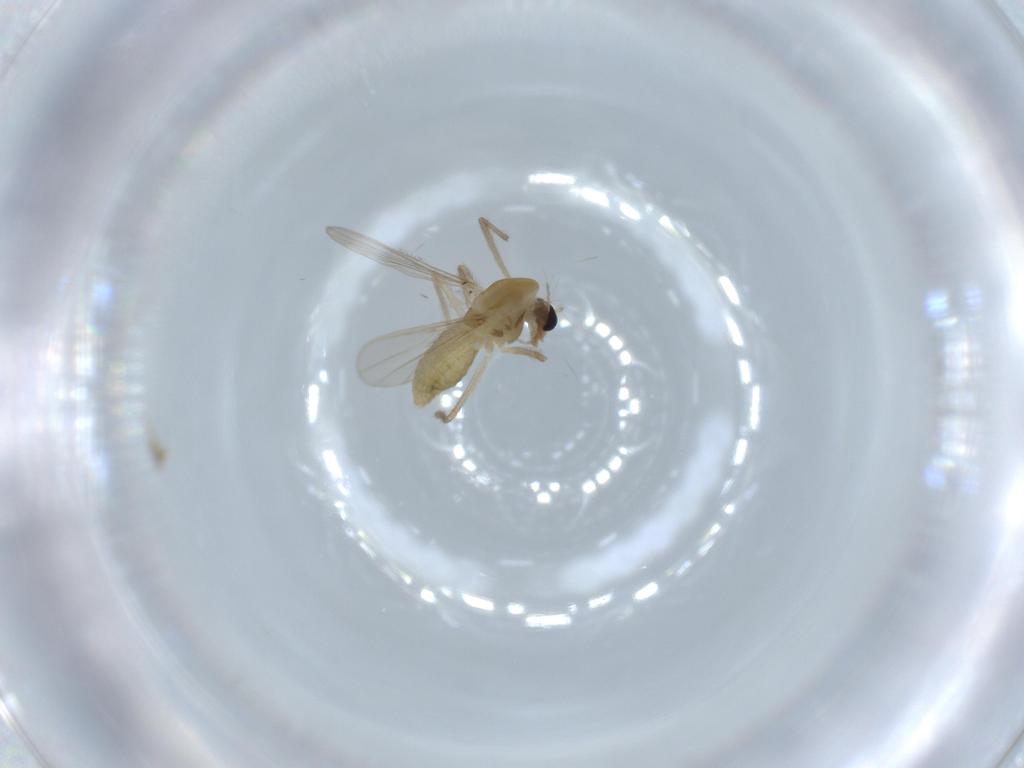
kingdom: Animalia
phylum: Arthropoda
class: Insecta
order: Diptera
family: Chironomidae
